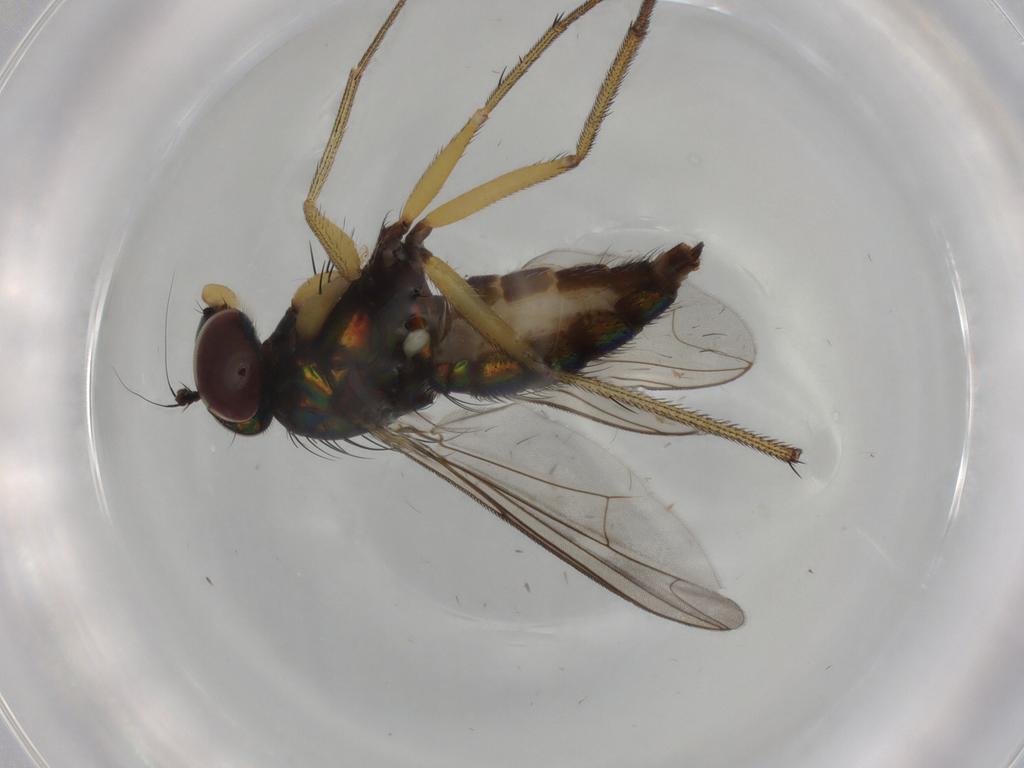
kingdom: Animalia
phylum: Arthropoda
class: Insecta
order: Diptera
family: Dolichopodidae
